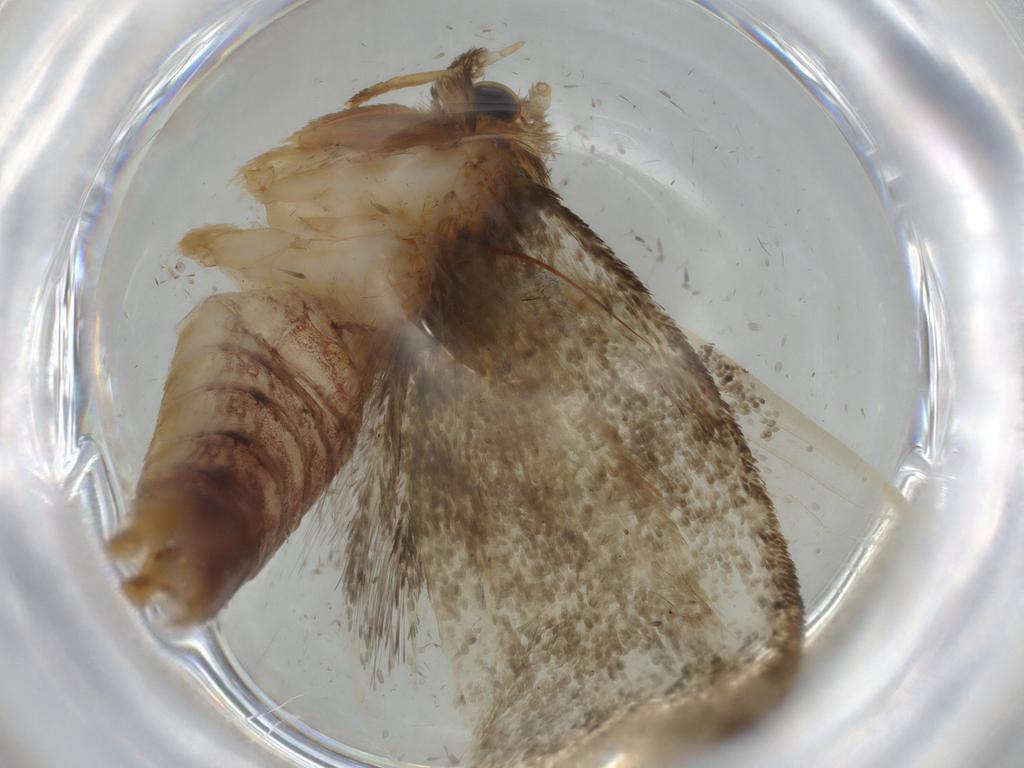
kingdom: Animalia
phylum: Arthropoda
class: Insecta
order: Lepidoptera
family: Tineidae
